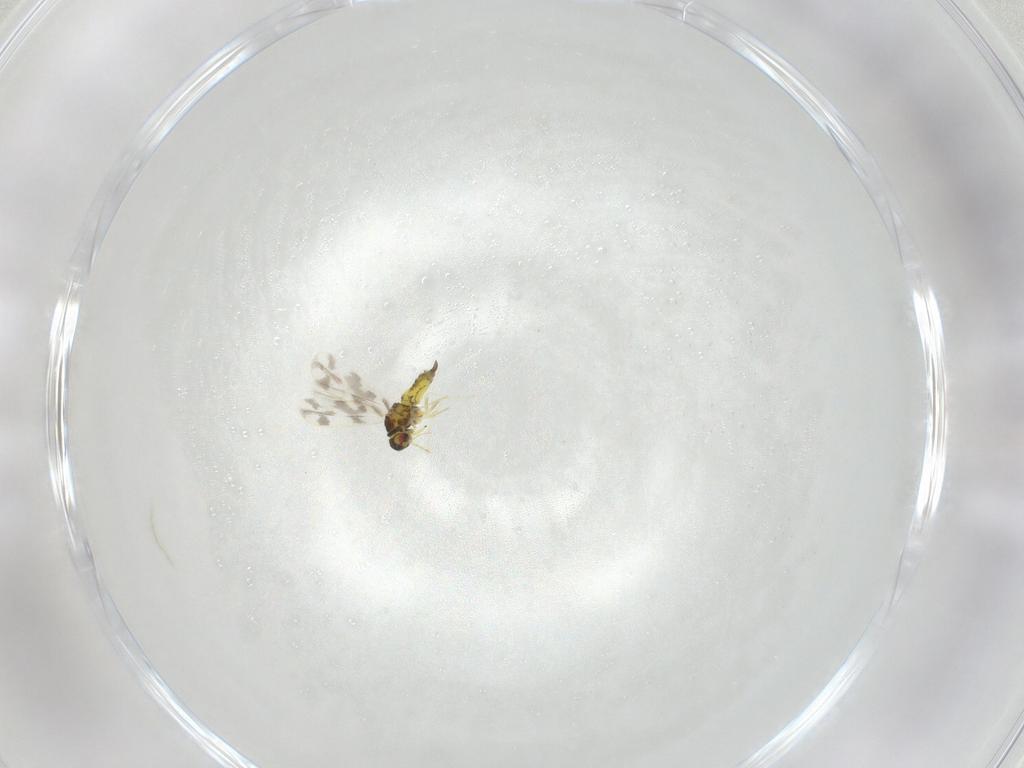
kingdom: Animalia
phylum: Arthropoda
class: Insecta
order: Hemiptera
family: Aleyrodidae
